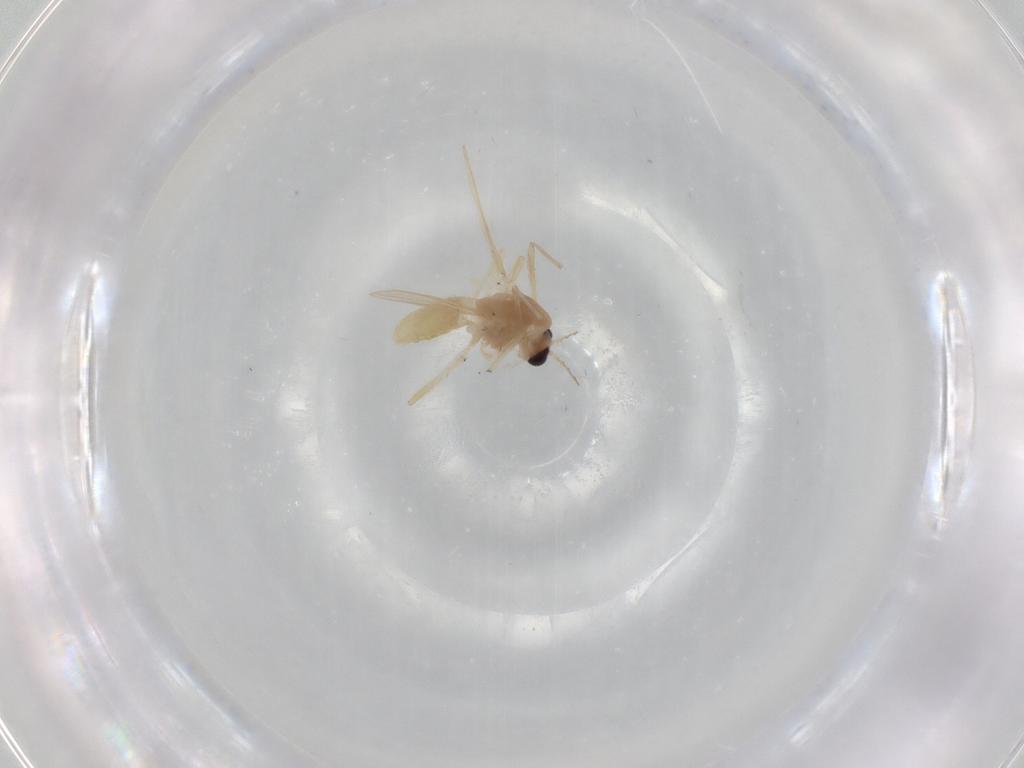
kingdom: Animalia
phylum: Arthropoda
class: Insecta
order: Diptera
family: Chironomidae
